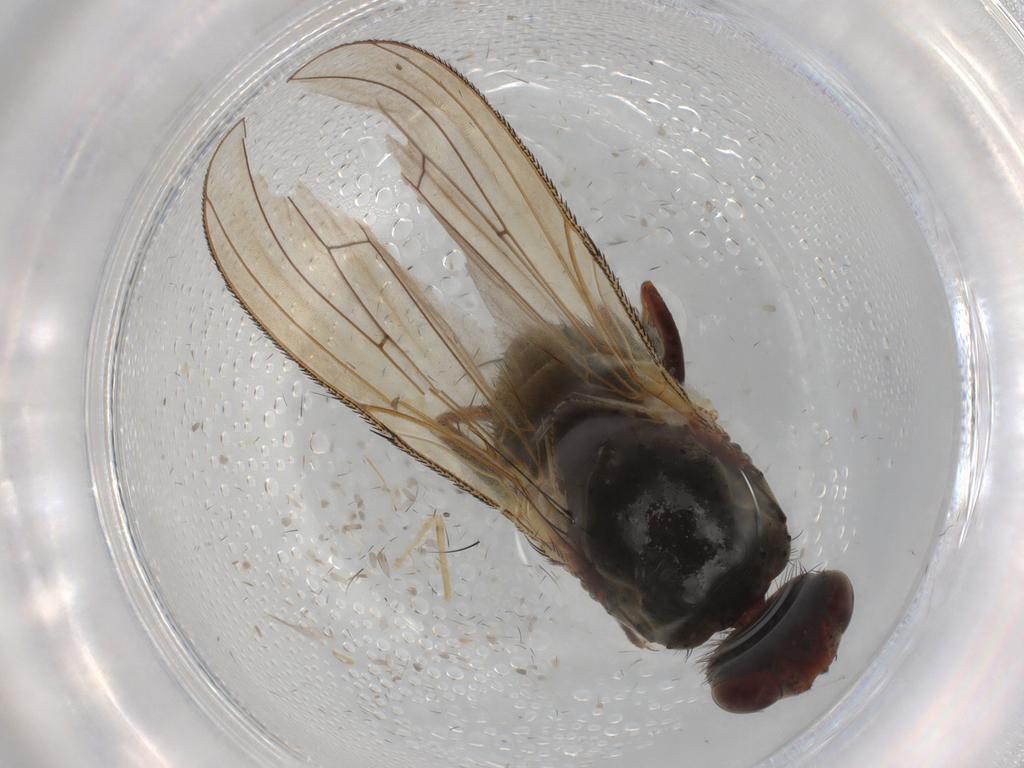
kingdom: Animalia
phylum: Arthropoda
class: Insecta
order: Diptera
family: Anthomyiidae
